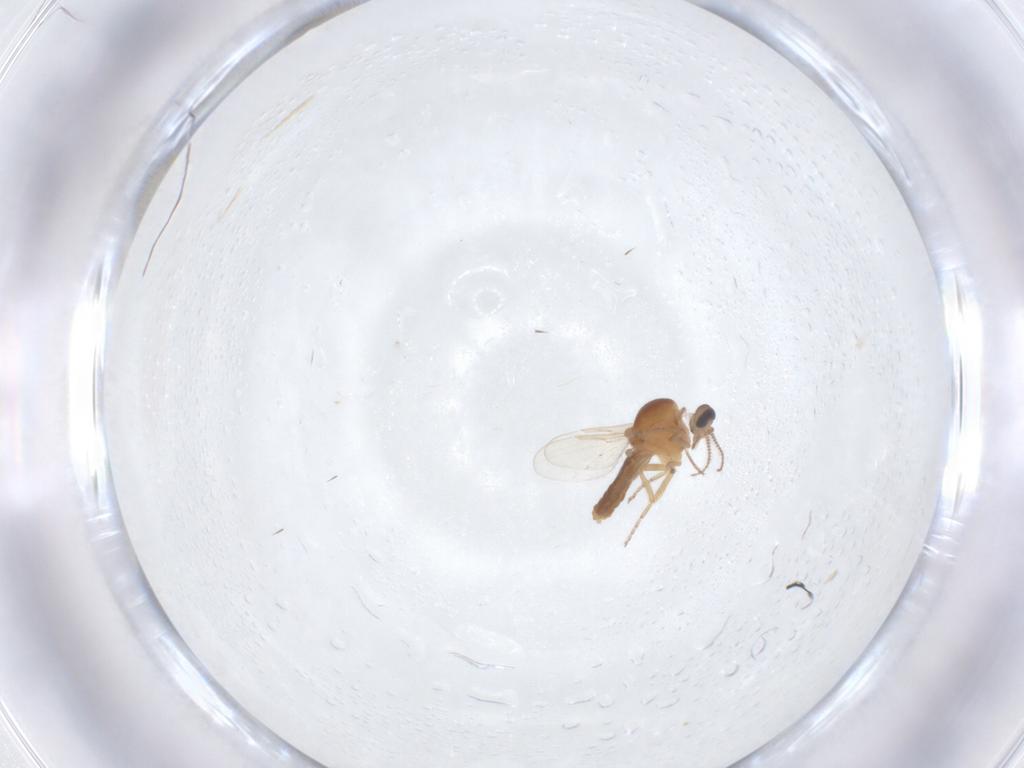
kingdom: Animalia
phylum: Arthropoda
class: Insecta
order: Diptera
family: Ceratopogonidae
